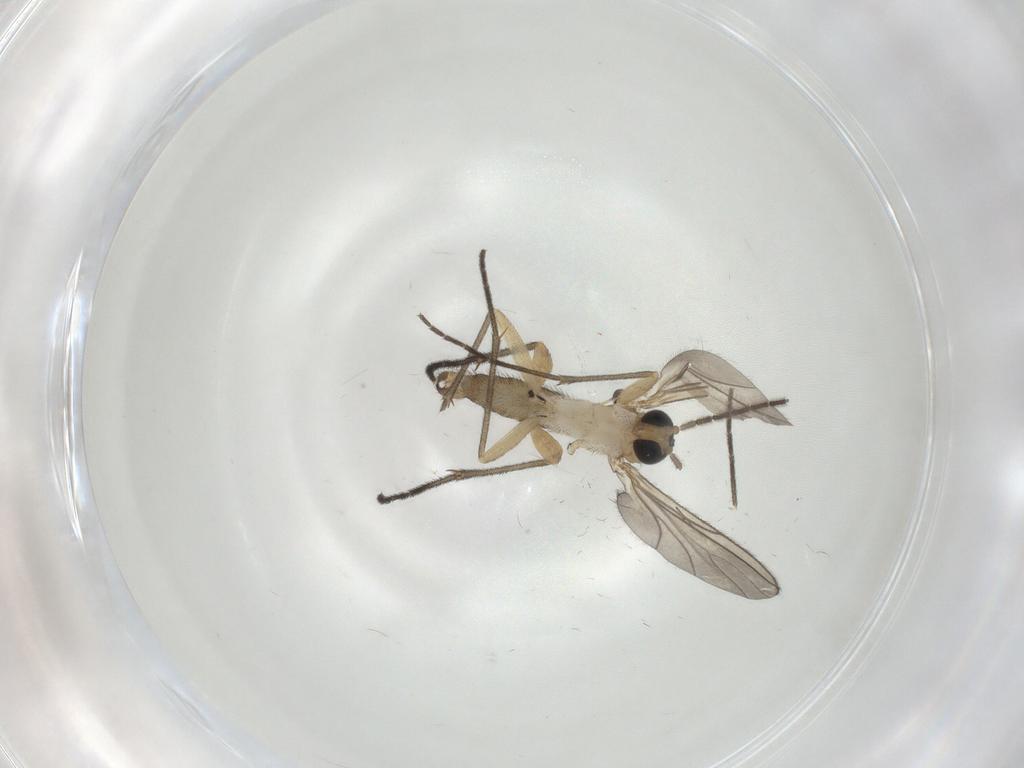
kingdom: Animalia
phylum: Arthropoda
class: Insecta
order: Diptera
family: Sciaridae
